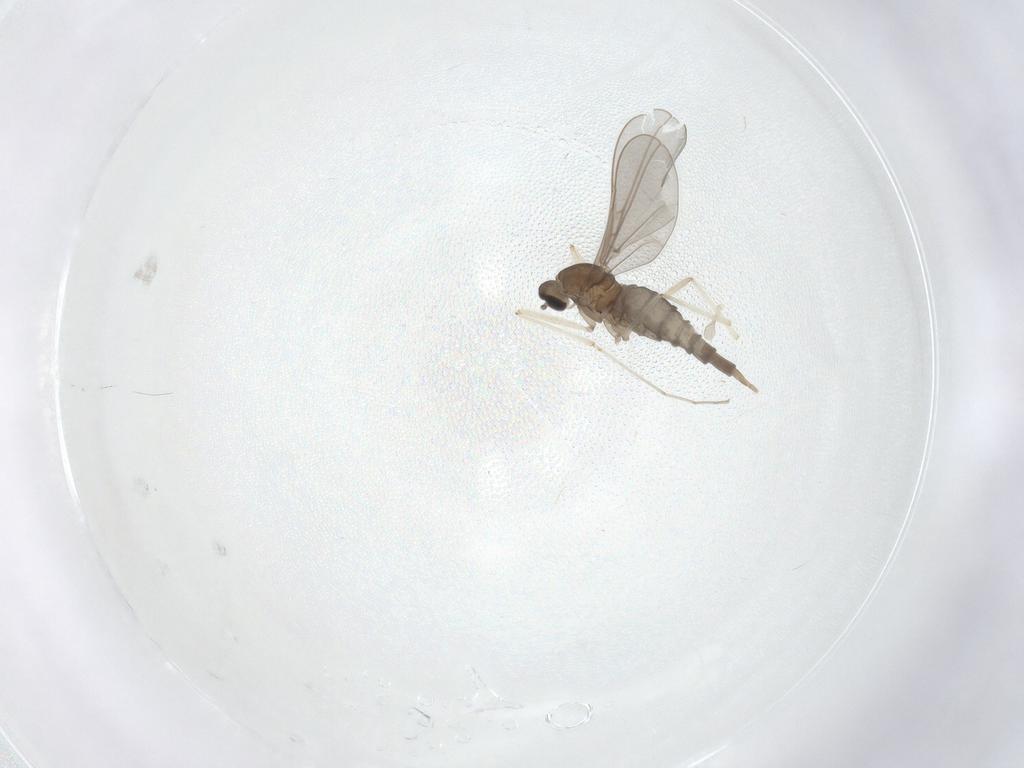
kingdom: Animalia
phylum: Arthropoda
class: Insecta
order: Diptera
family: Cecidomyiidae
